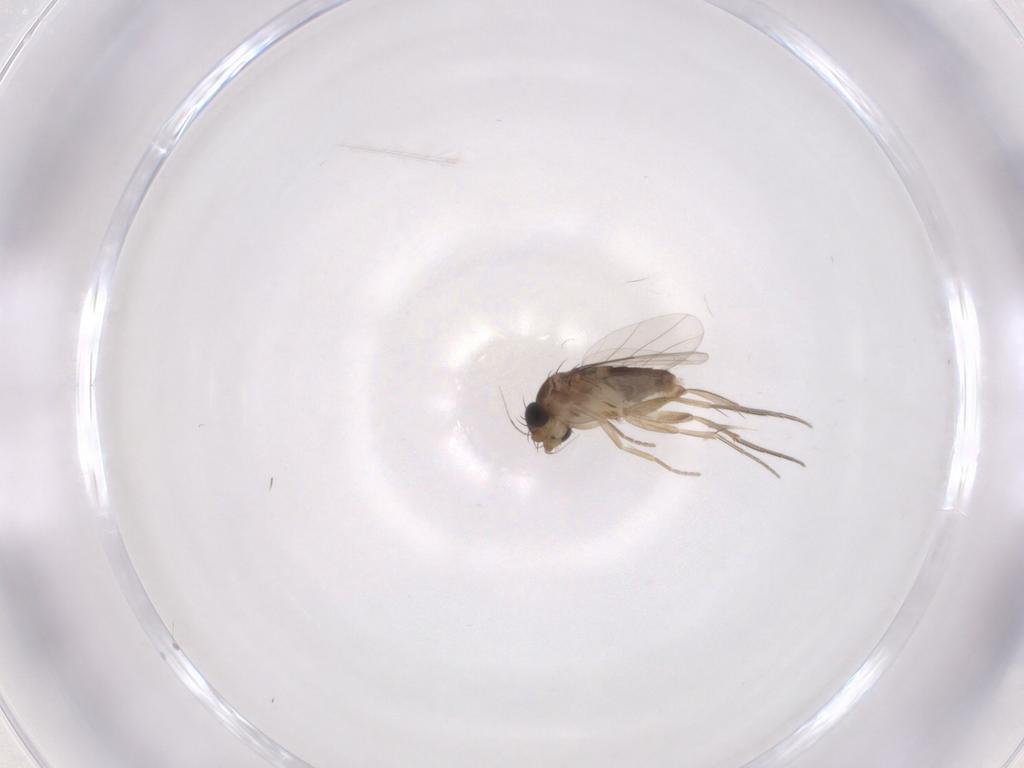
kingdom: Animalia
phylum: Arthropoda
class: Insecta
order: Diptera
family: Phoridae
